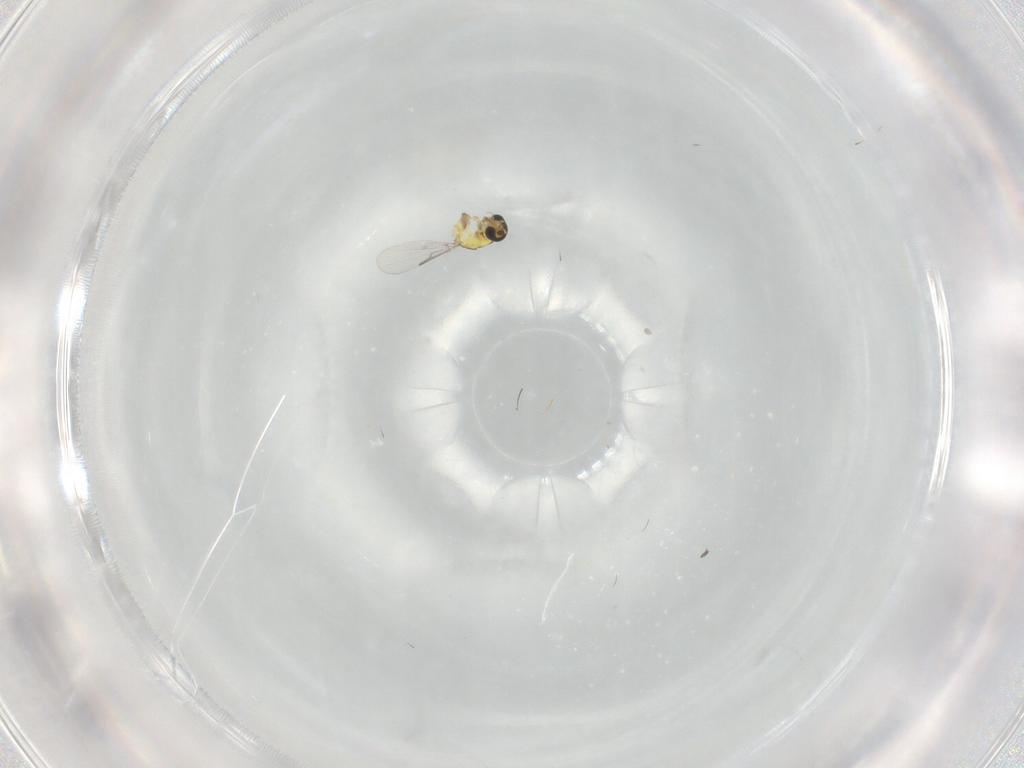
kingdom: Animalia
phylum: Arthropoda
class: Insecta
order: Diptera
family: Ceratopogonidae
